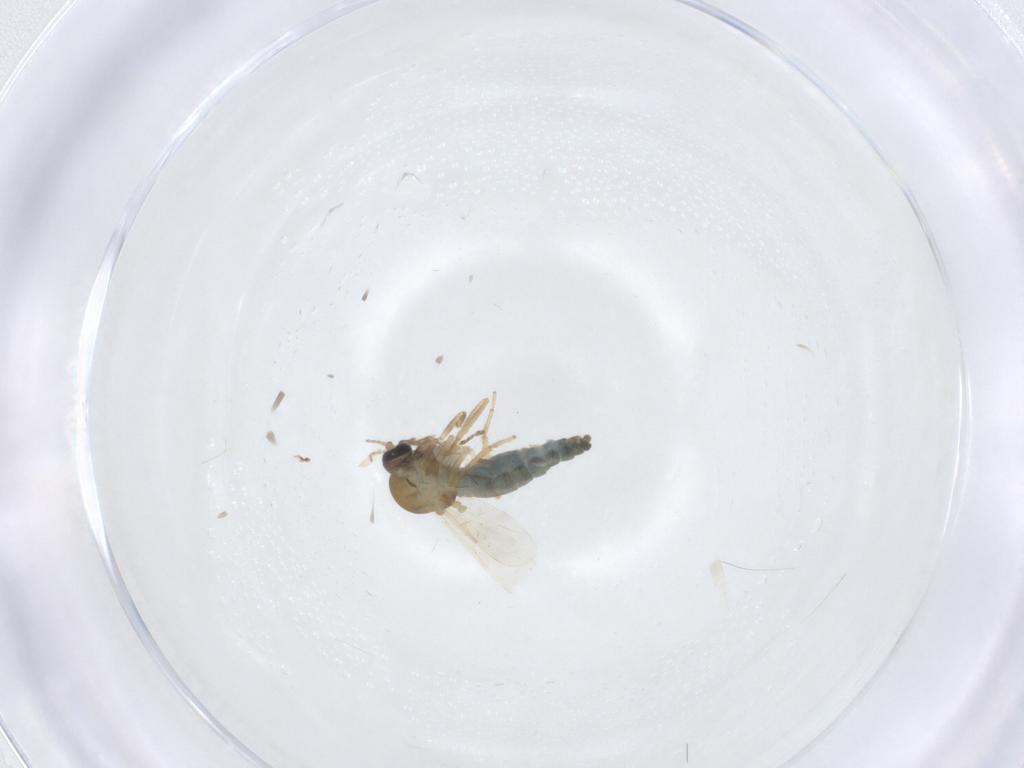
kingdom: Animalia
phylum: Arthropoda
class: Insecta
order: Diptera
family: Ceratopogonidae
